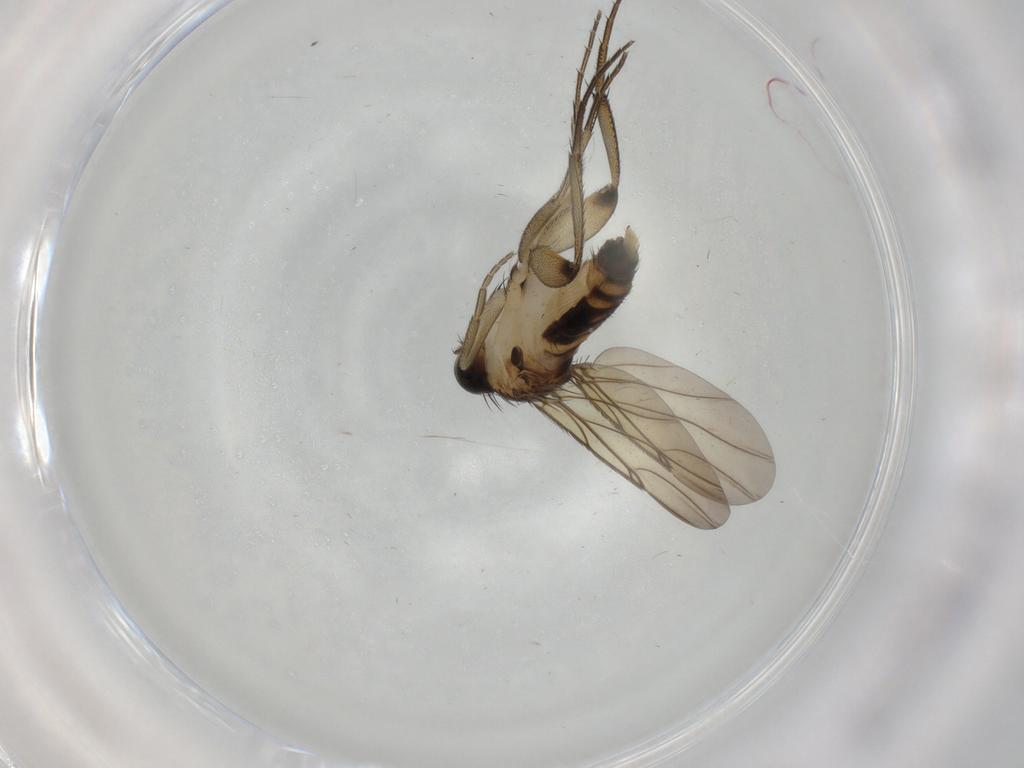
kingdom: Animalia
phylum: Arthropoda
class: Insecta
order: Diptera
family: Phoridae
